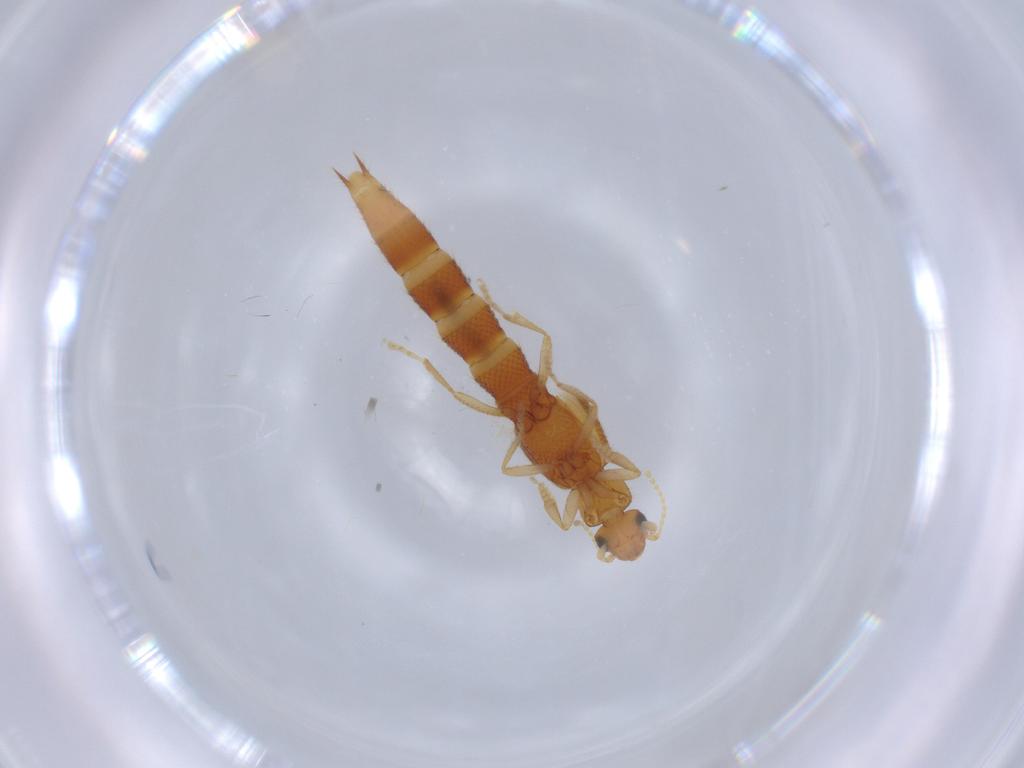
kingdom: Animalia
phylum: Arthropoda
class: Insecta
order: Coleoptera
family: Staphylinidae
